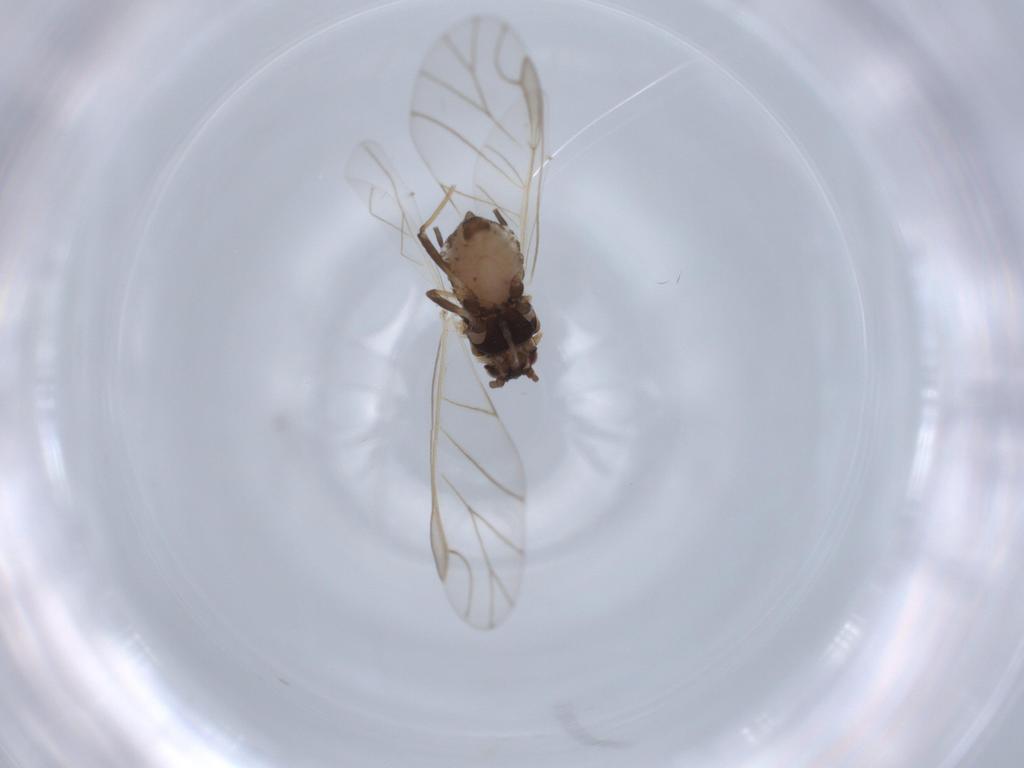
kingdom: Animalia
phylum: Arthropoda
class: Insecta
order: Hemiptera
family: Aphididae
